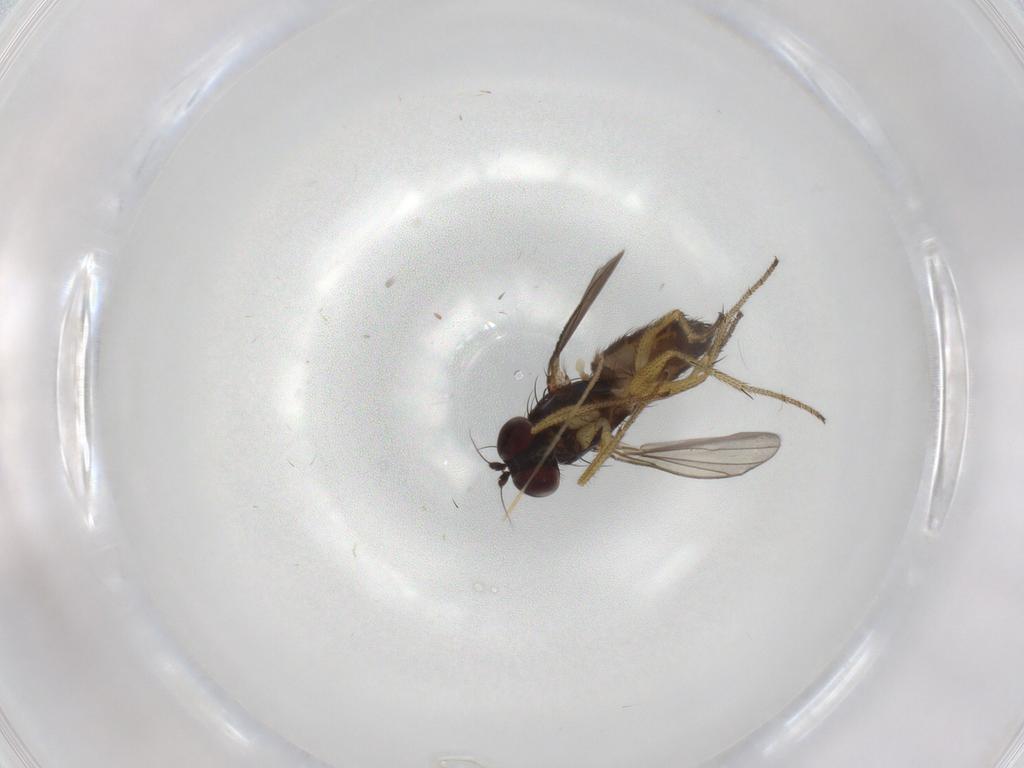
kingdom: Animalia
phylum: Arthropoda
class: Insecta
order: Diptera
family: Dolichopodidae
